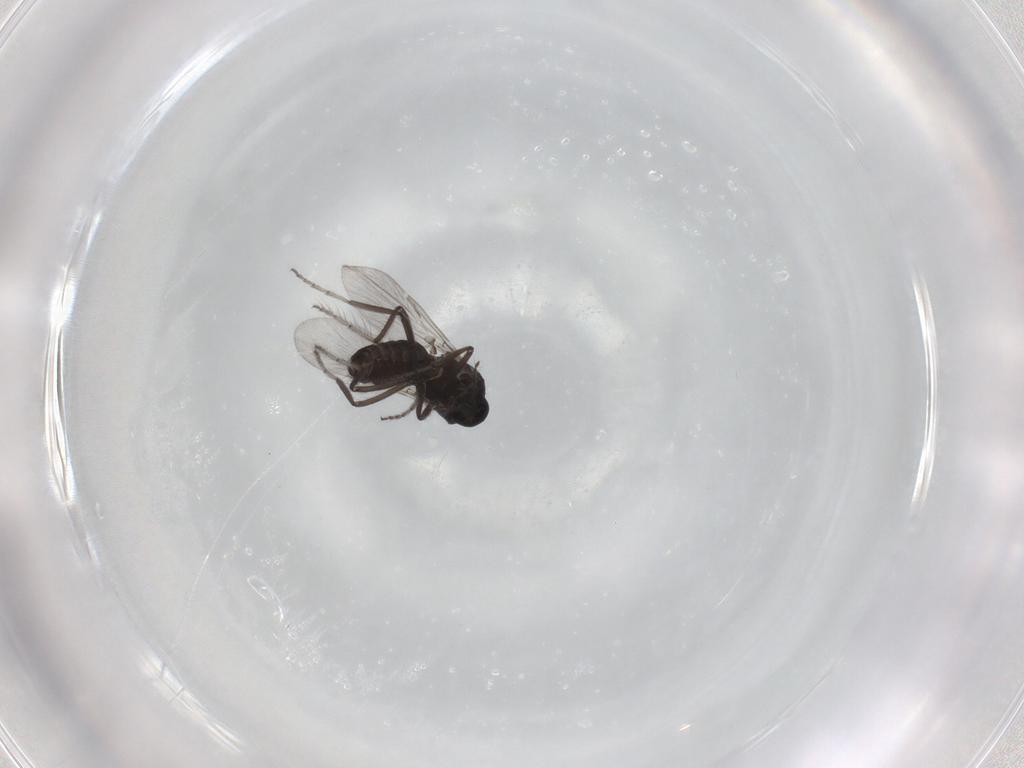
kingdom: Animalia
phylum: Arthropoda
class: Insecta
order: Diptera
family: Ceratopogonidae
